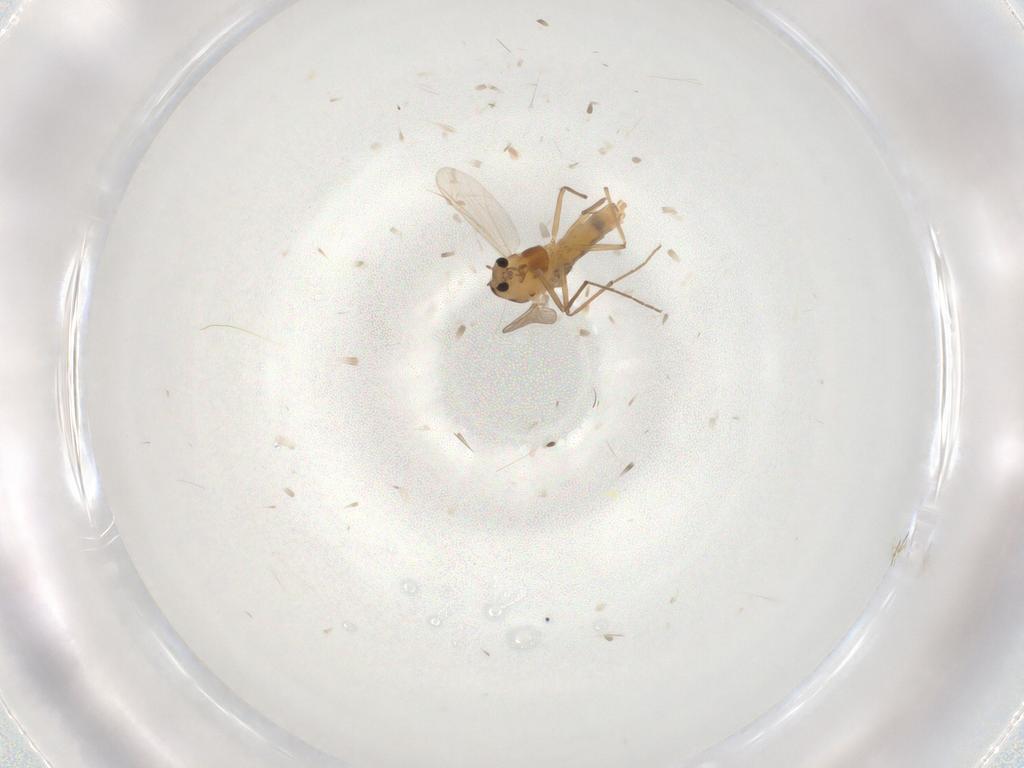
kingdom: Animalia
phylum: Arthropoda
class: Insecta
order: Diptera
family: Chironomidae
